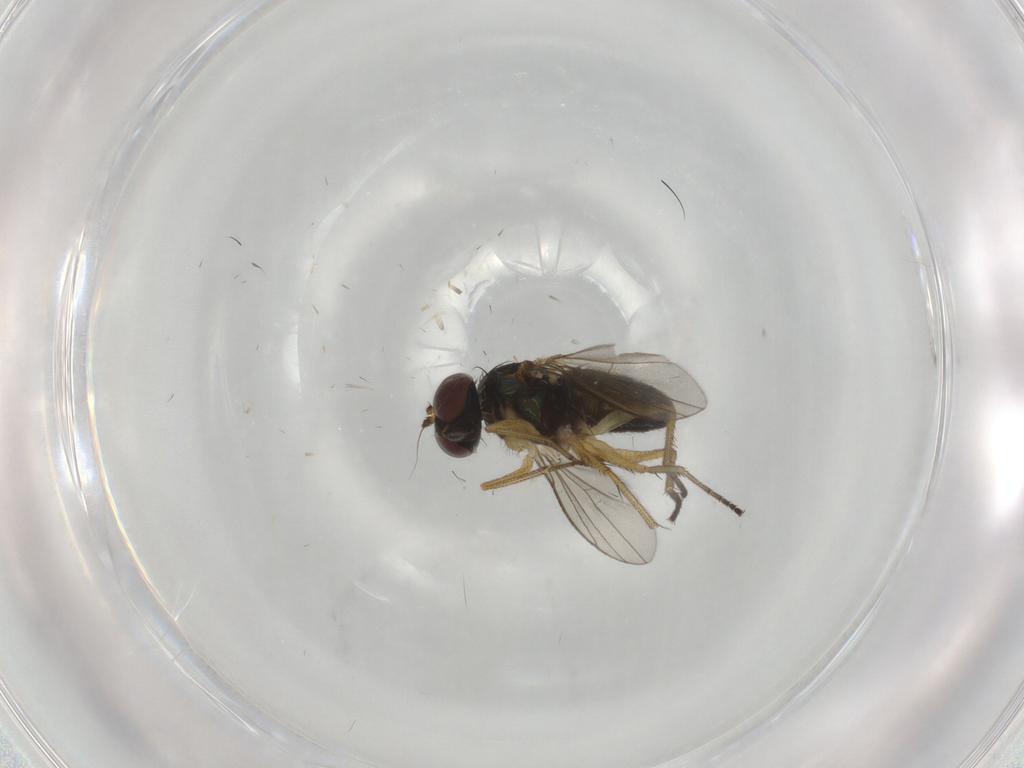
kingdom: Animalia
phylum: Arthropoda
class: Insecta
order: Diptera
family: Dolichopodidae
